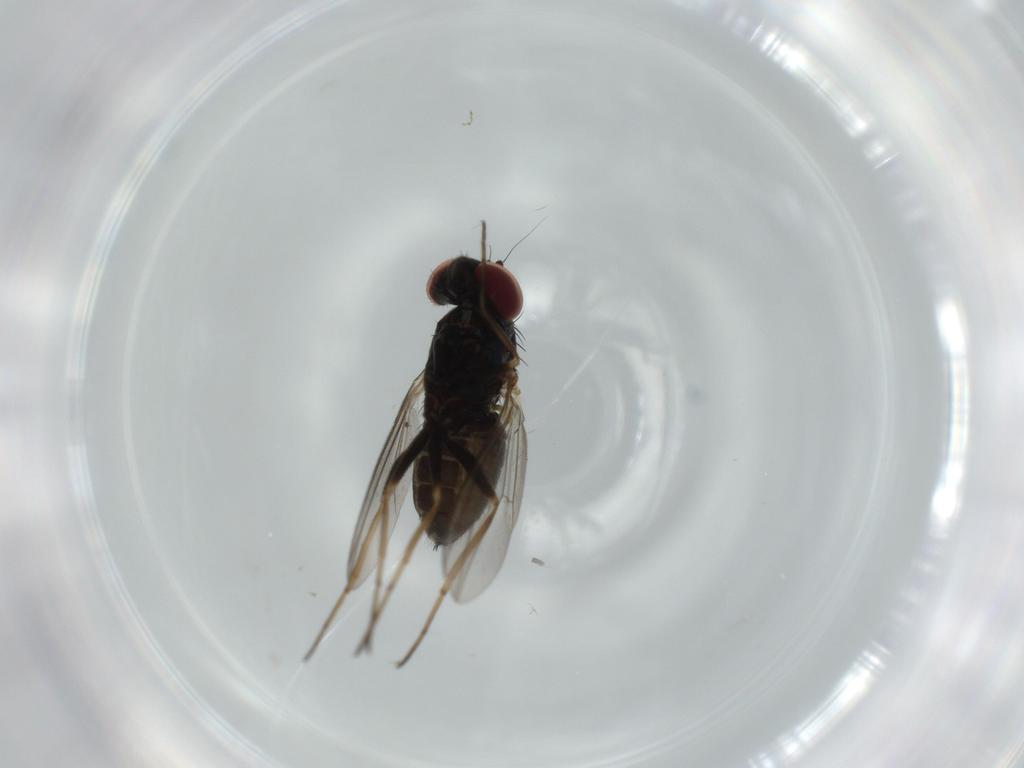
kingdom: Animalia
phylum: Arthropoda
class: Insecta
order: Diptera
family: Dolichopodidae
